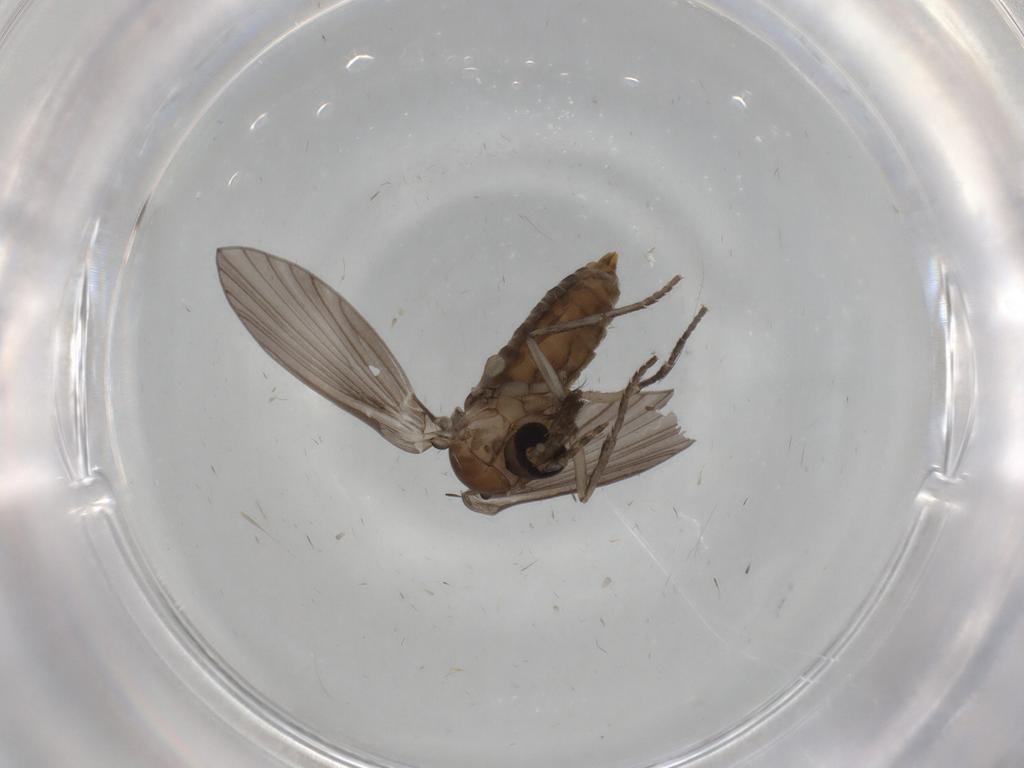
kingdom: Animalia
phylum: Arthropoda
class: Insecta
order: Diptera
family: Psychodidae
